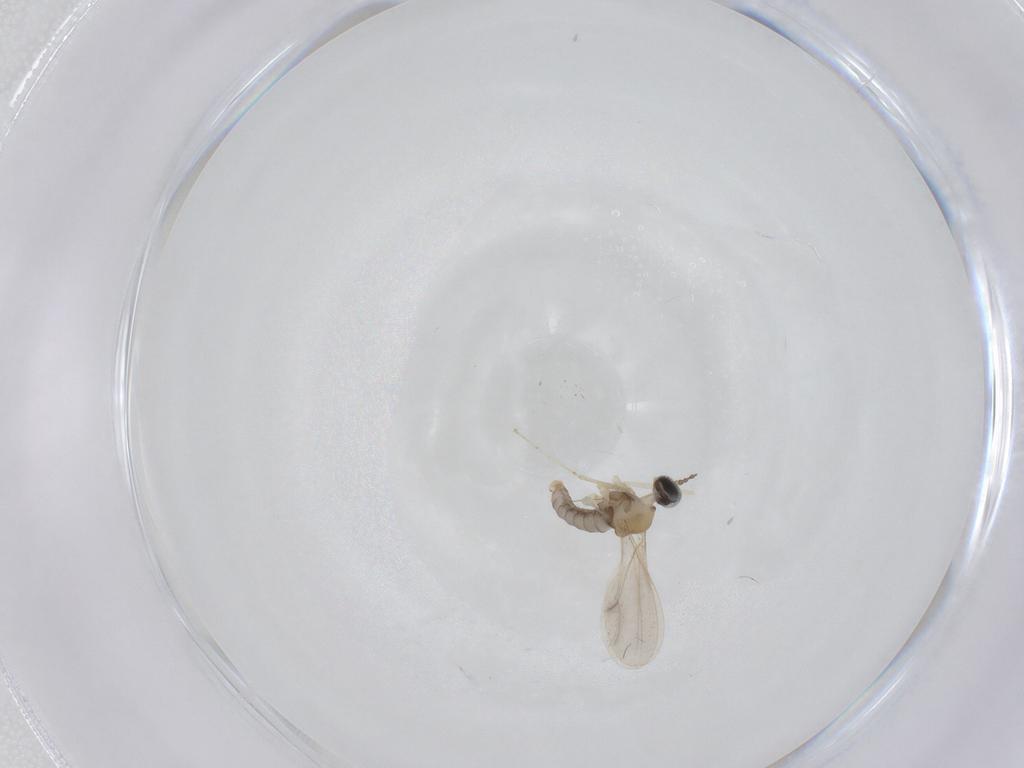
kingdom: Animalia
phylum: Arthropoda
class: Insecta
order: Diptera
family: Cecidomyiidae
